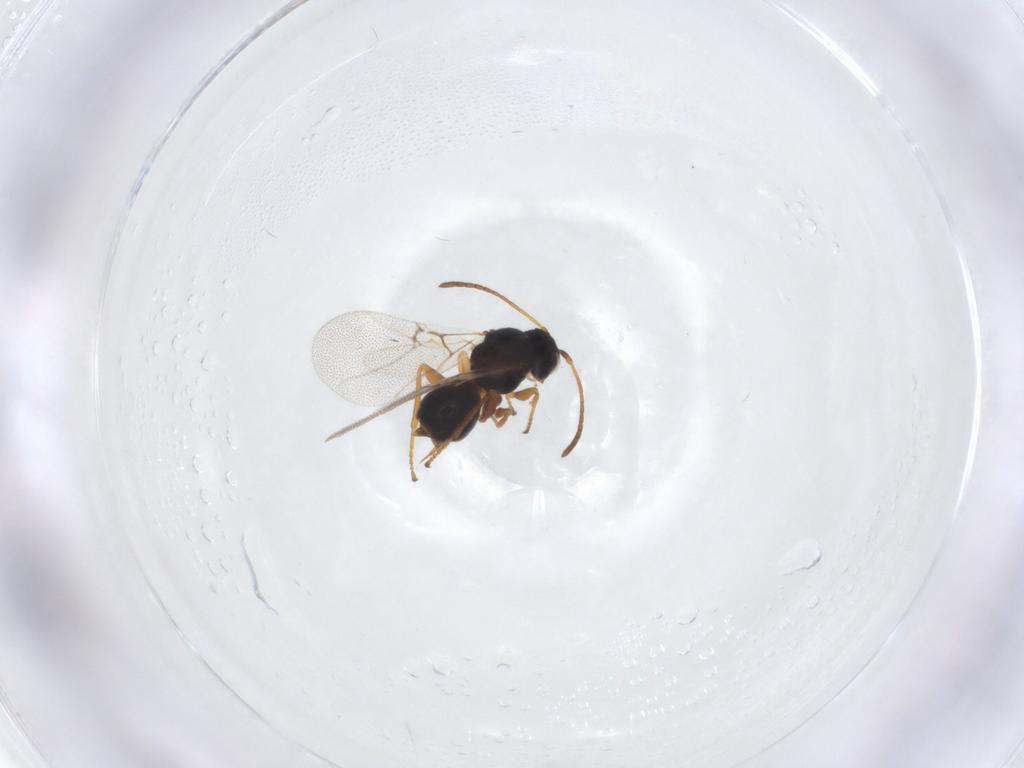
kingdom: Animalia
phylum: Arthropoda
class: Insecta
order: Hymenoptera
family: Cynipidae
